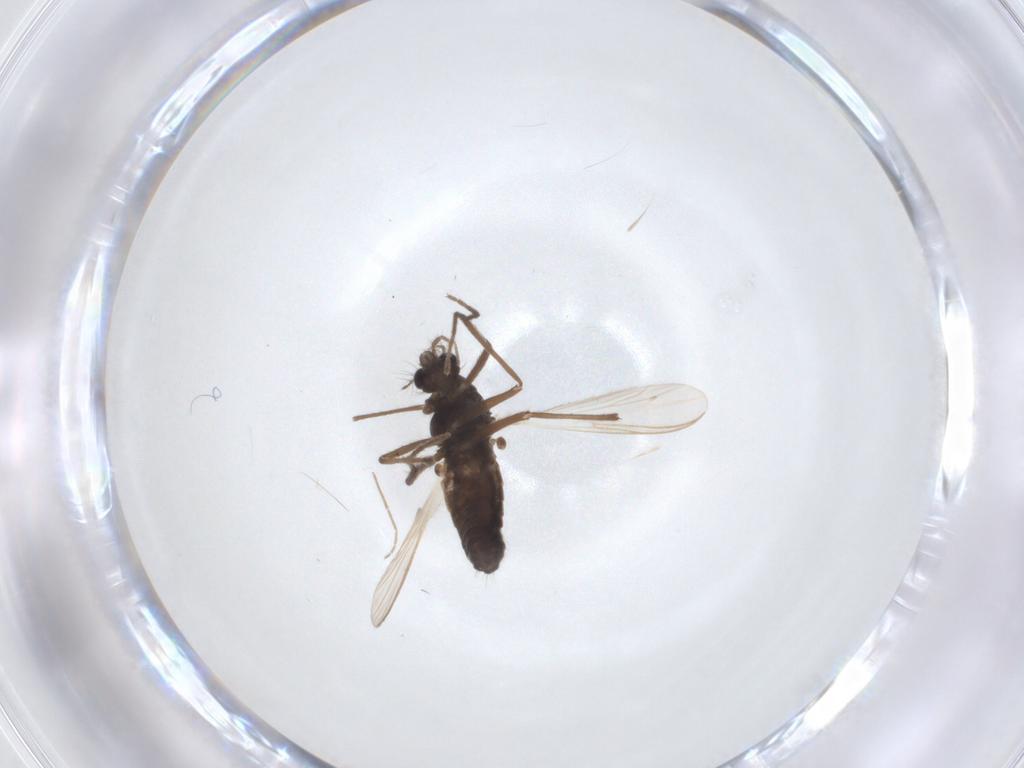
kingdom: Animalia
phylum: Arthropoda
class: Insecta
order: Diptera
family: Chironomidae
